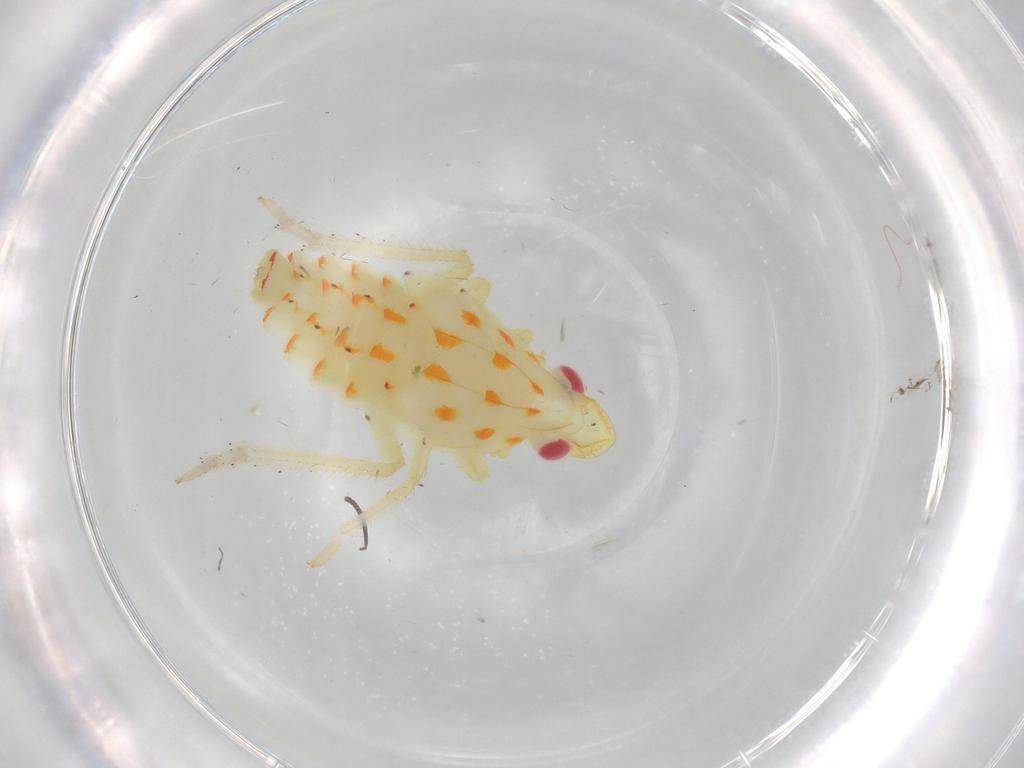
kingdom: Animalia
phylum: Arthropoda
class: Insecta
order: Hemiptera
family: Tropiduchidae
